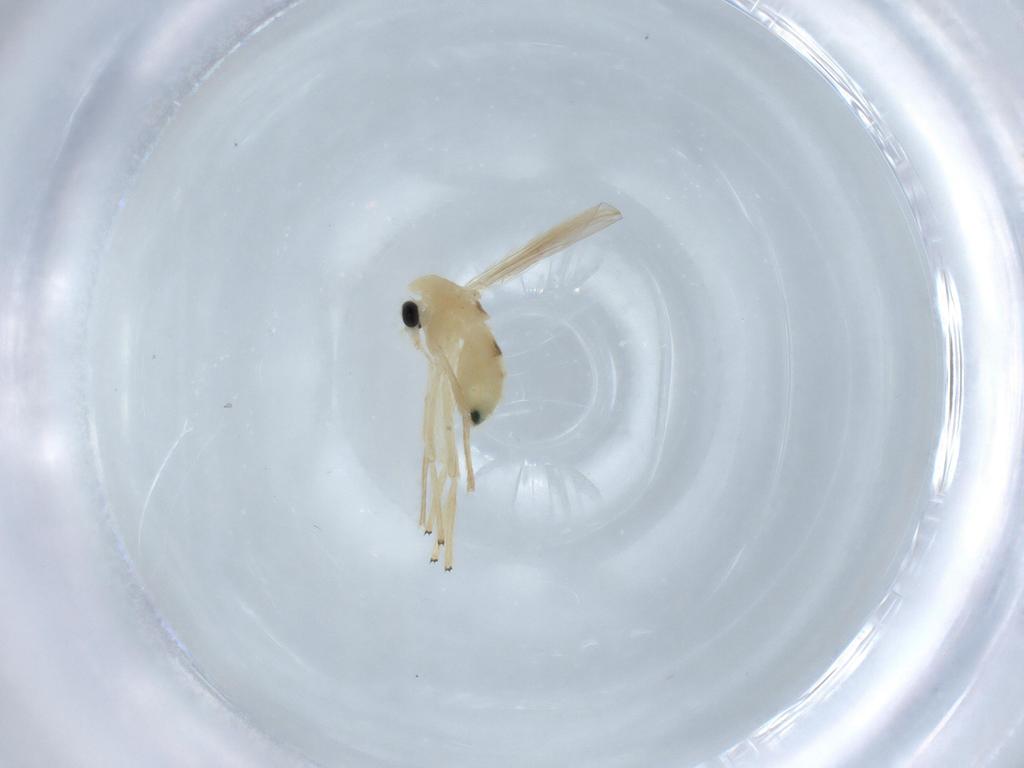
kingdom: Animalia
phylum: Arthropoda
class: Insecta
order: Diptera
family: Chironomidae
